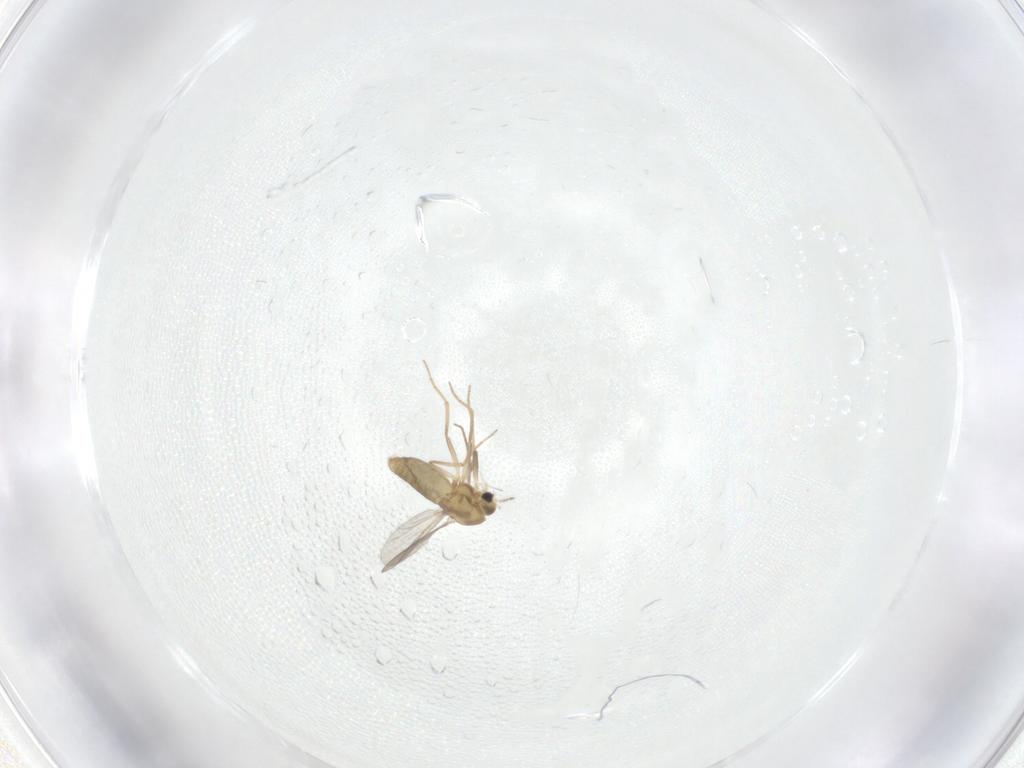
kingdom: Animalia
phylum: Arthropoda
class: Insecta
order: Diptera
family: Chironomidae
